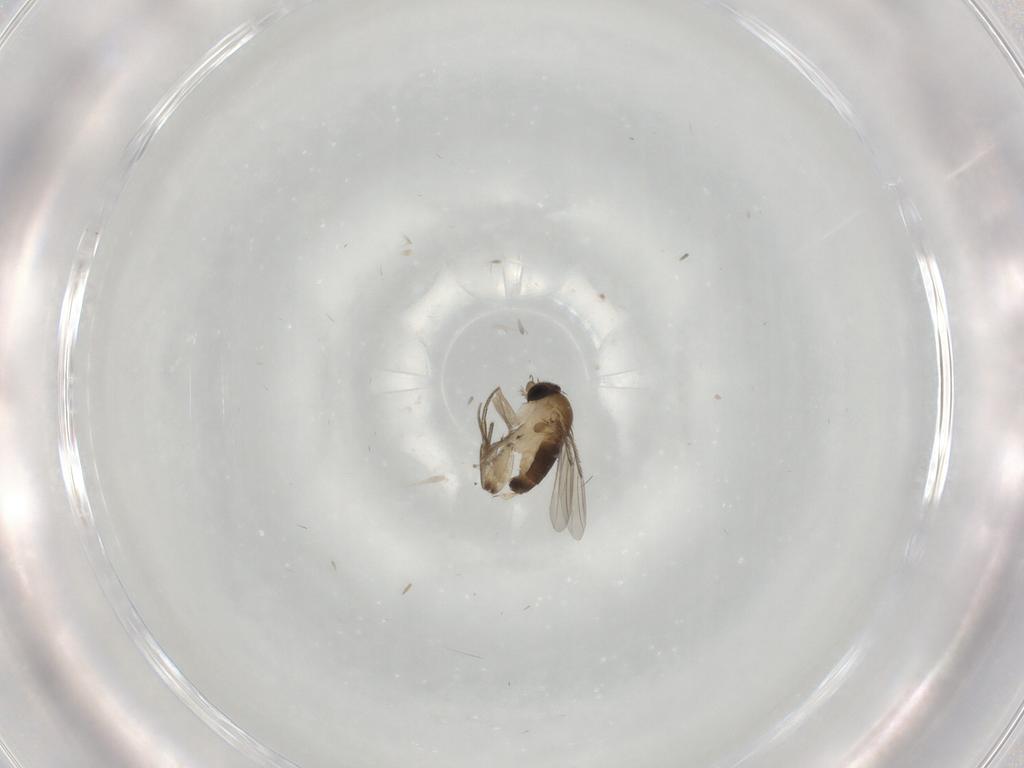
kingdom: Animalia
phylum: Arthropoda
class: Insecta
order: Diptera
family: Phoridae
